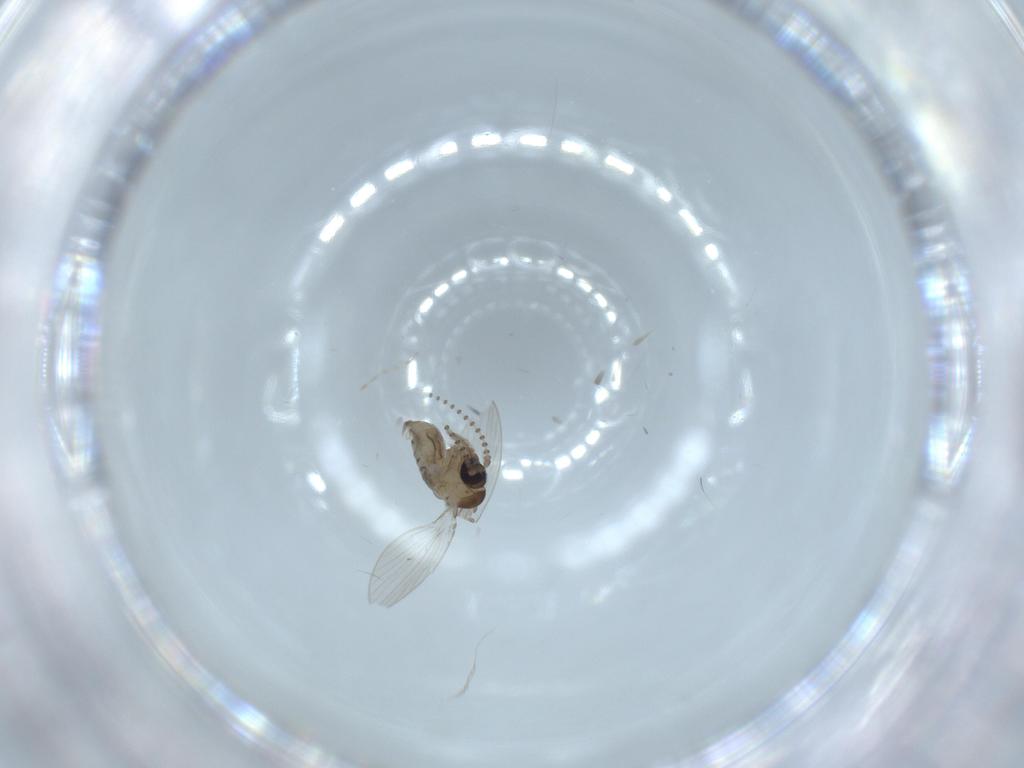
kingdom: Animalia
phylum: Arthropoda
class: Insecta
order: Diptera
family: Psychodidae
